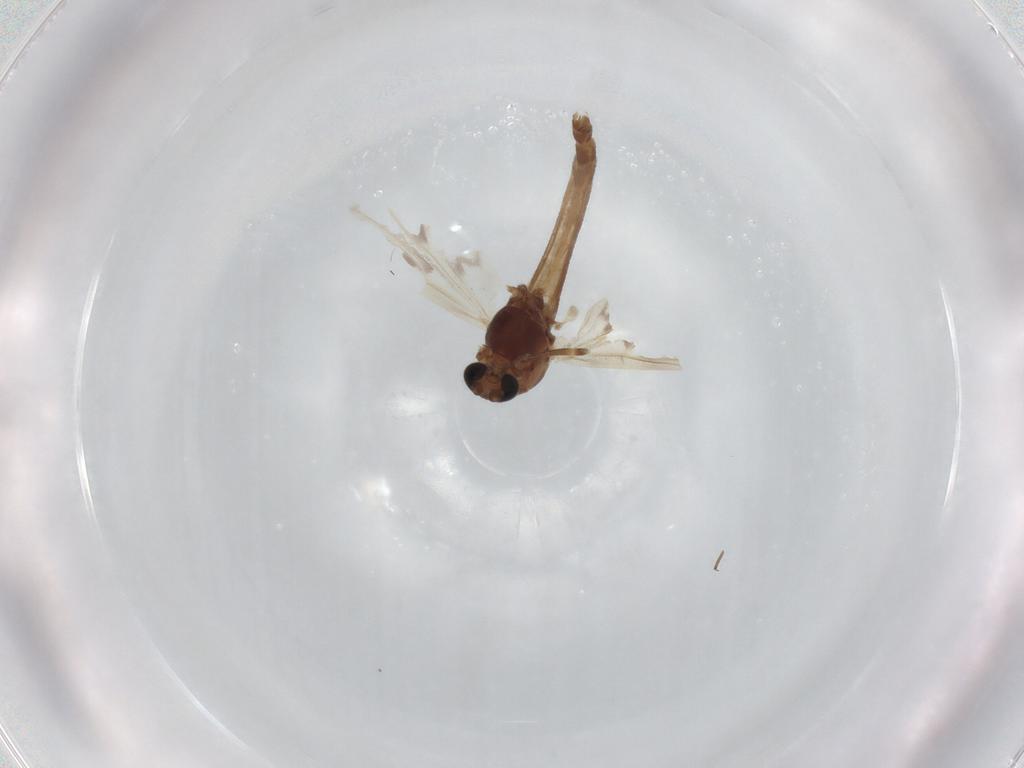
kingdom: Animalia
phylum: Arthropoda
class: Insecta
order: Diptera
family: Chironomidae
